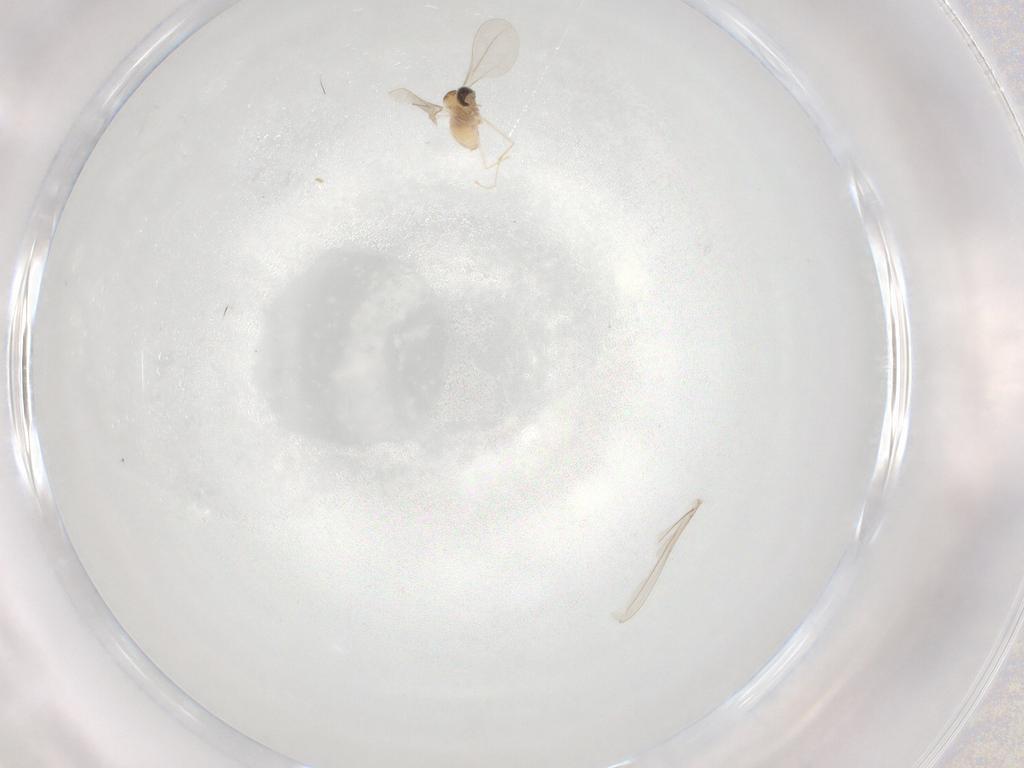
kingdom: Animalia
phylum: Arthropoda
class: Insecta
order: Diptera
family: Cecidomyiidae
